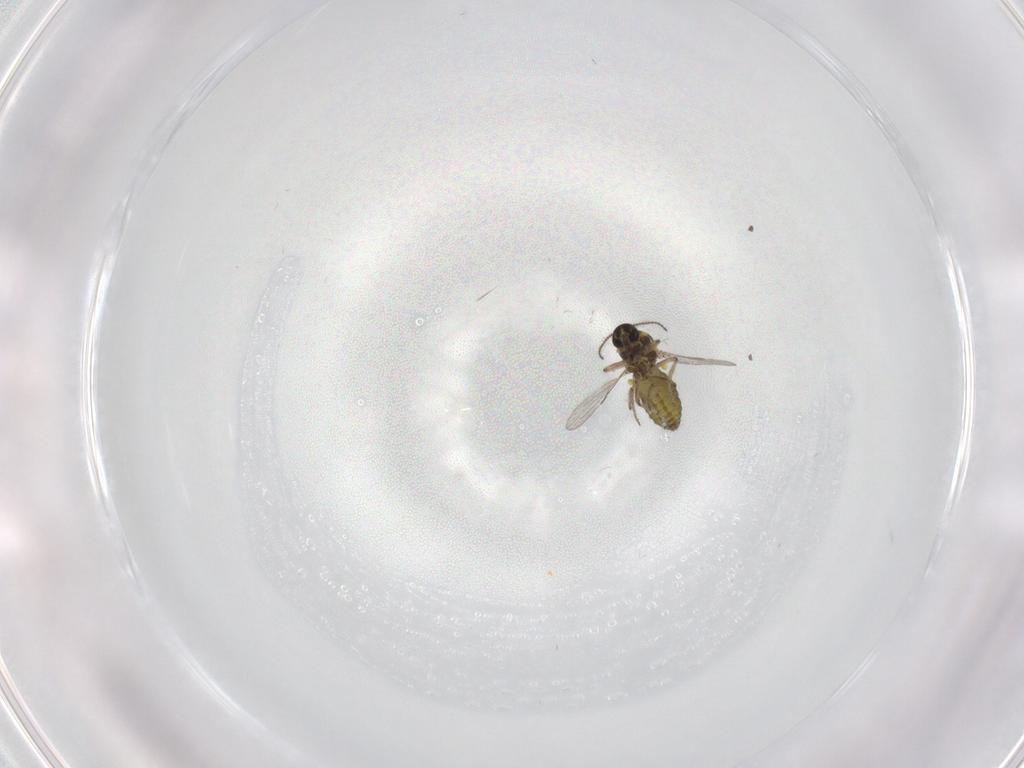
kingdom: Animalia
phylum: Arthropoda
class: Insecta
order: Diptera
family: Ceratopogonidae
